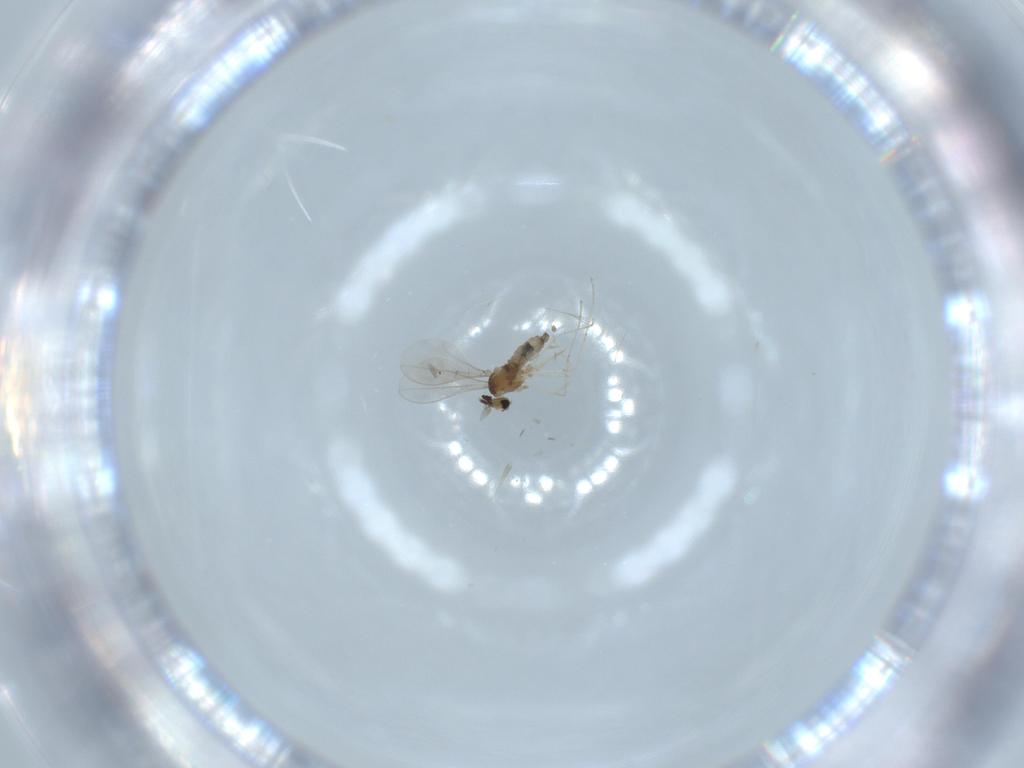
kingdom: Animalia
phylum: Arthropoda
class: Insecta
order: Diptera
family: Cecidomyiidae
